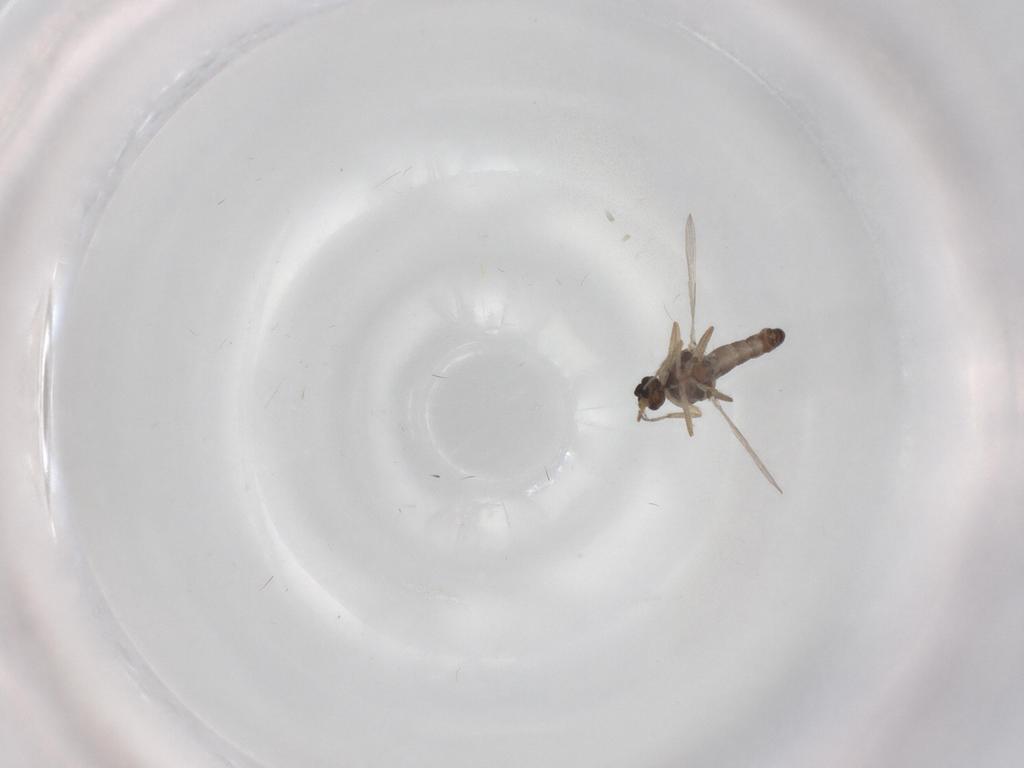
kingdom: Animalia
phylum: Arthropoda
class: Insecta
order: Diptera
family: Ceratopogonidae
